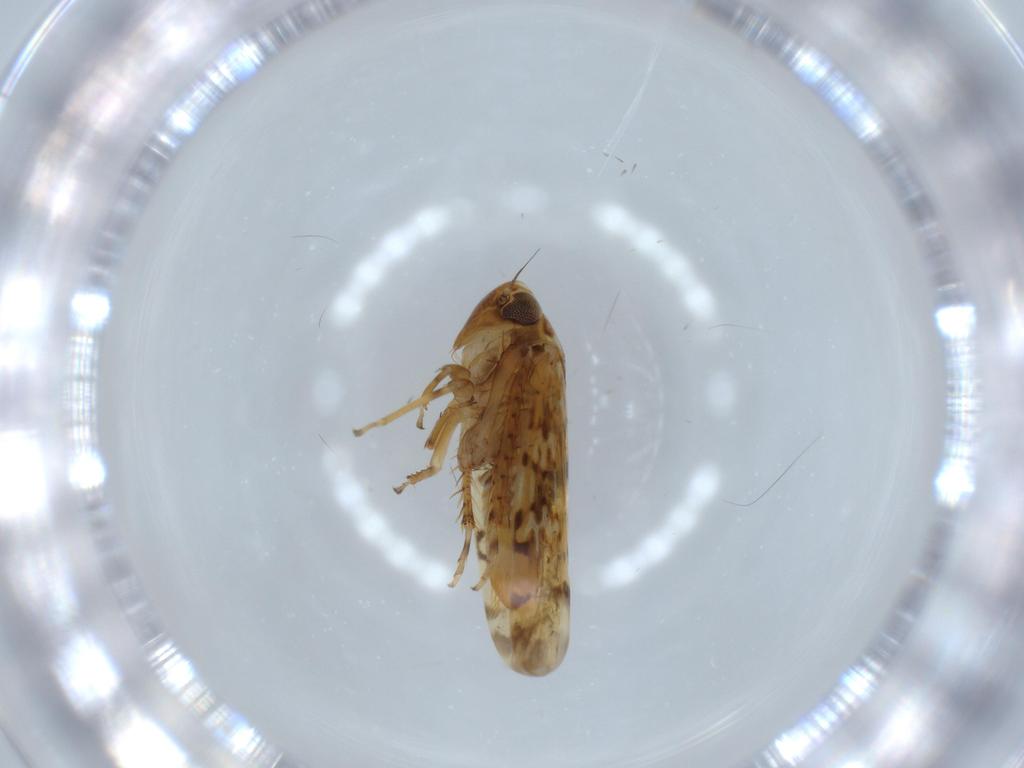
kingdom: Animalia
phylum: Arthropoda
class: Insecta
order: Hemiptera
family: Cicadellidae
